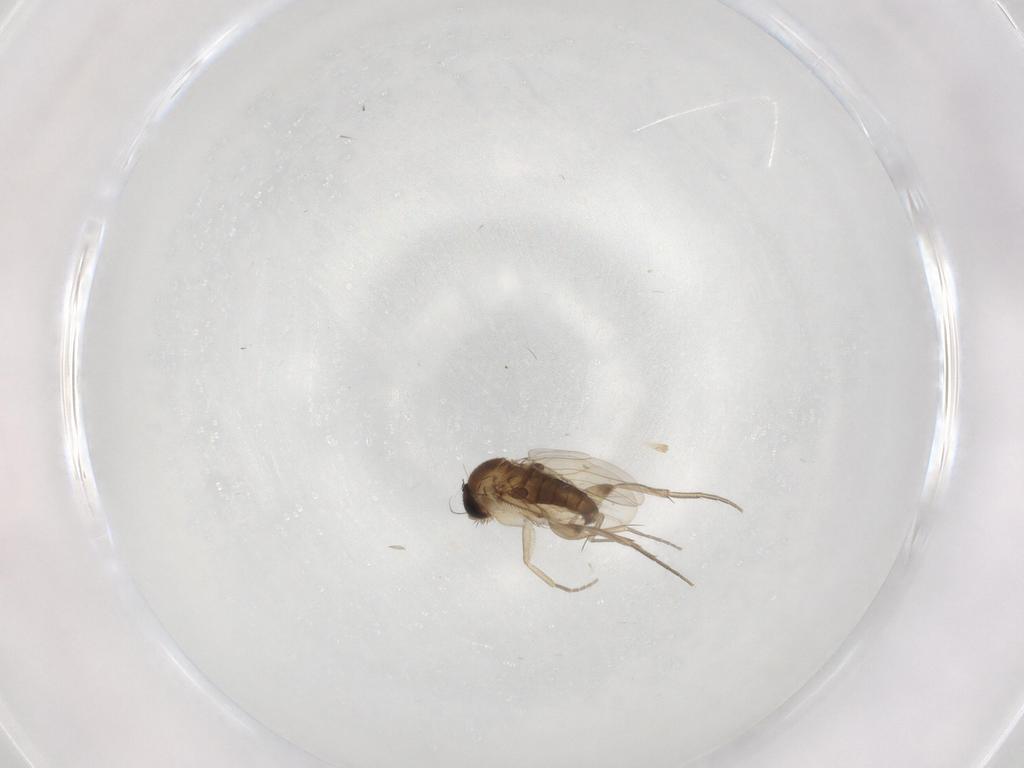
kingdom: Animalia
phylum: Arthropoda
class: Insecta
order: Diptera
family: Phoridae
